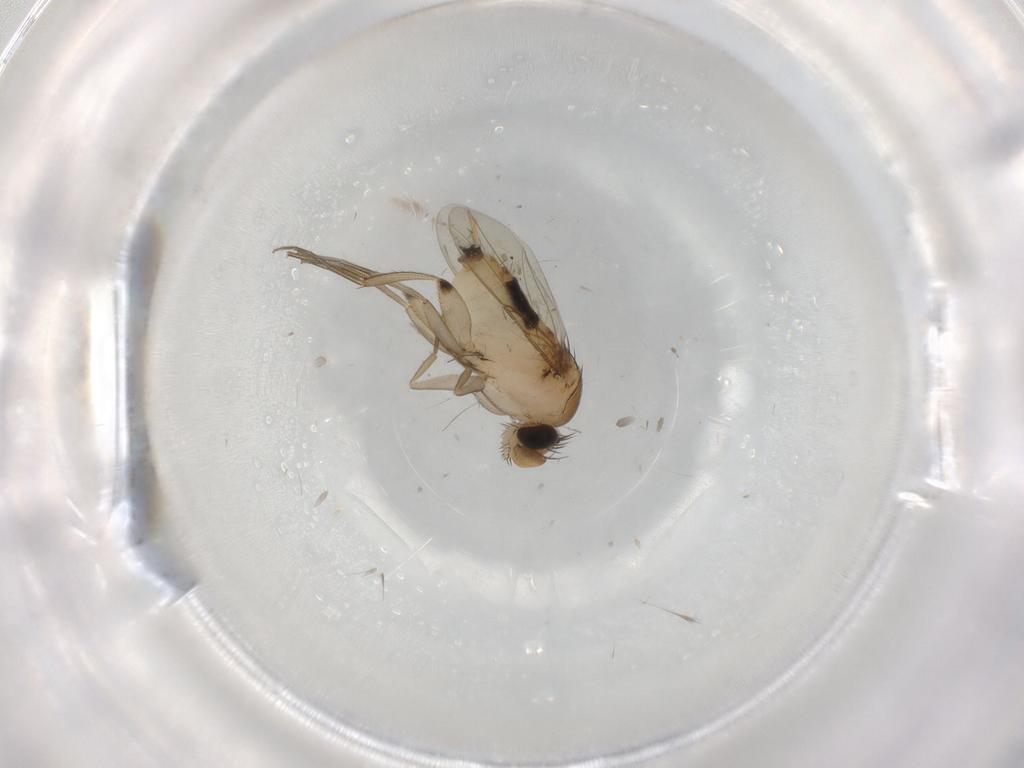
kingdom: Animalia
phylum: Arthropoda
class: Insecta
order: Diptera
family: Phoridae
